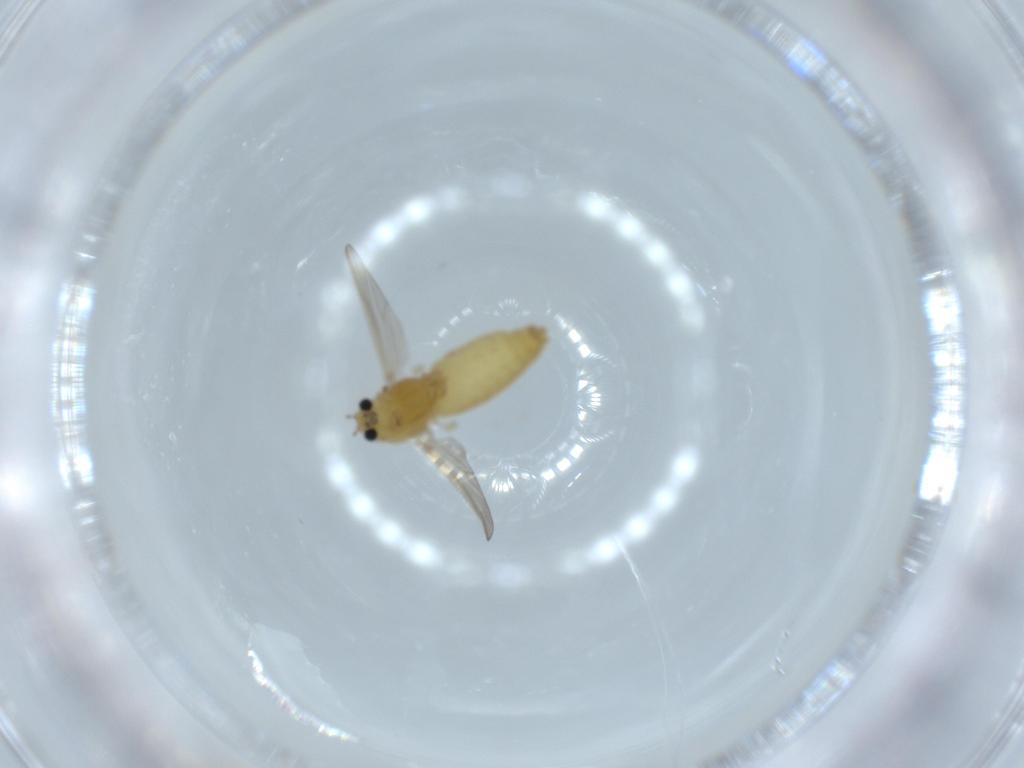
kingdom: Animalia
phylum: Arthropoda
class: Insecta
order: Diptera
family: Chironomidae
